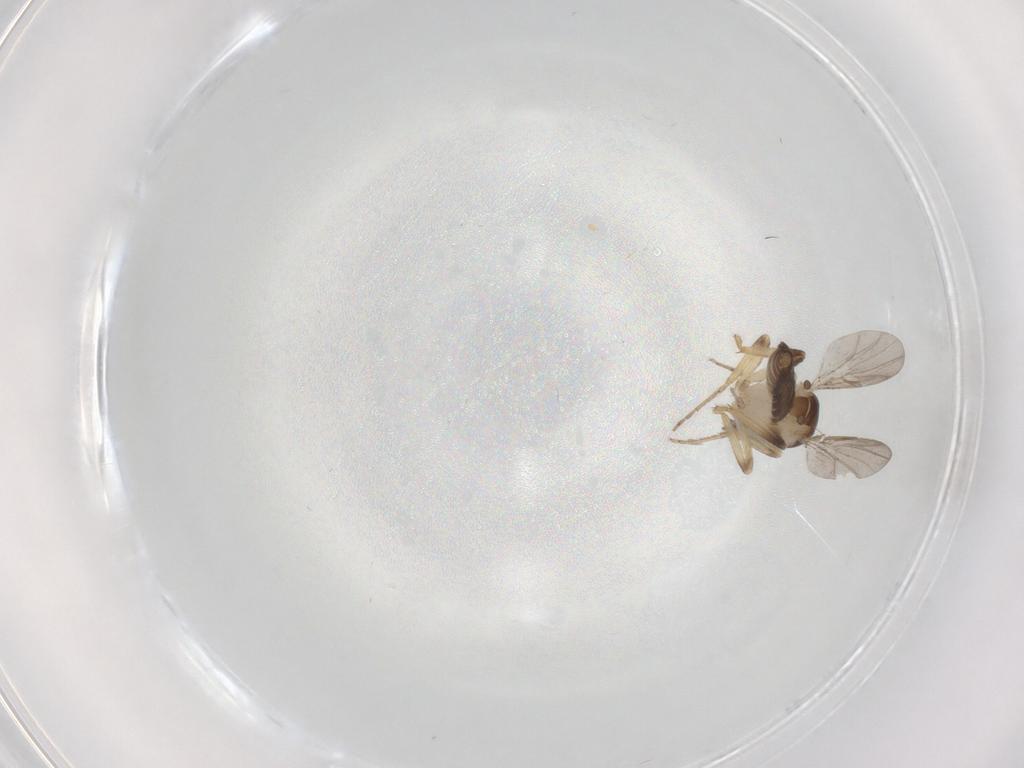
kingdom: Animalia
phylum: Arthropoda
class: Insecta
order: Diptera
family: Ceratopogonidae
